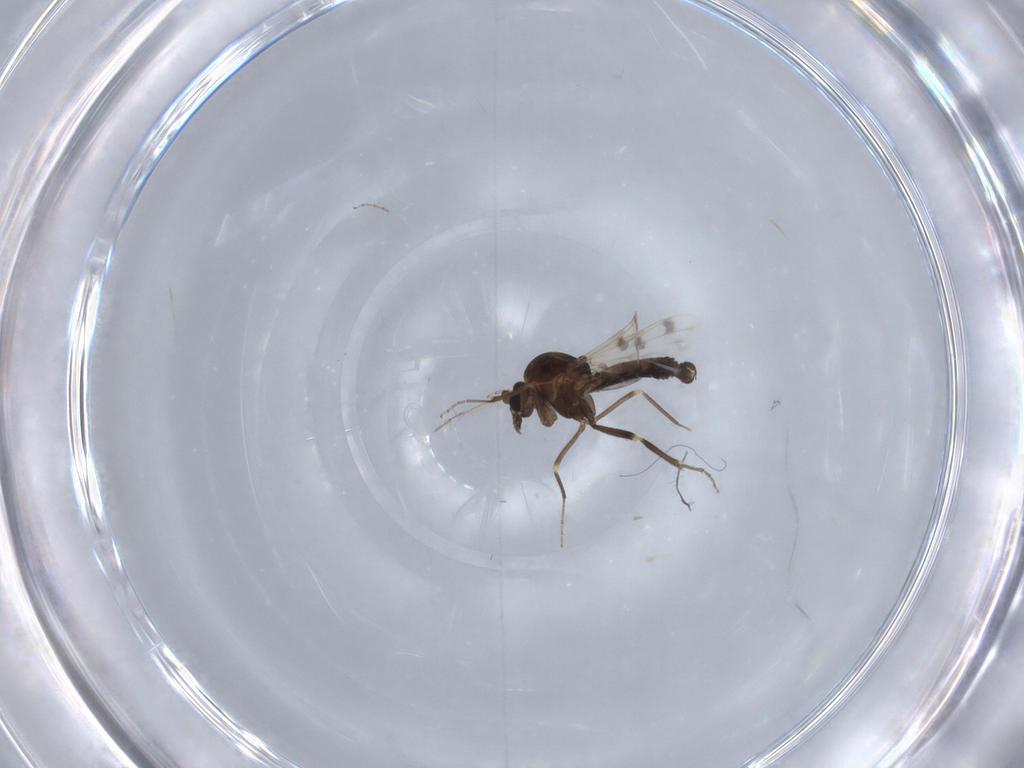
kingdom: Animalia
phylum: Arthropoda
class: Insecta
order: Diptera
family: Ceratopogonidae
